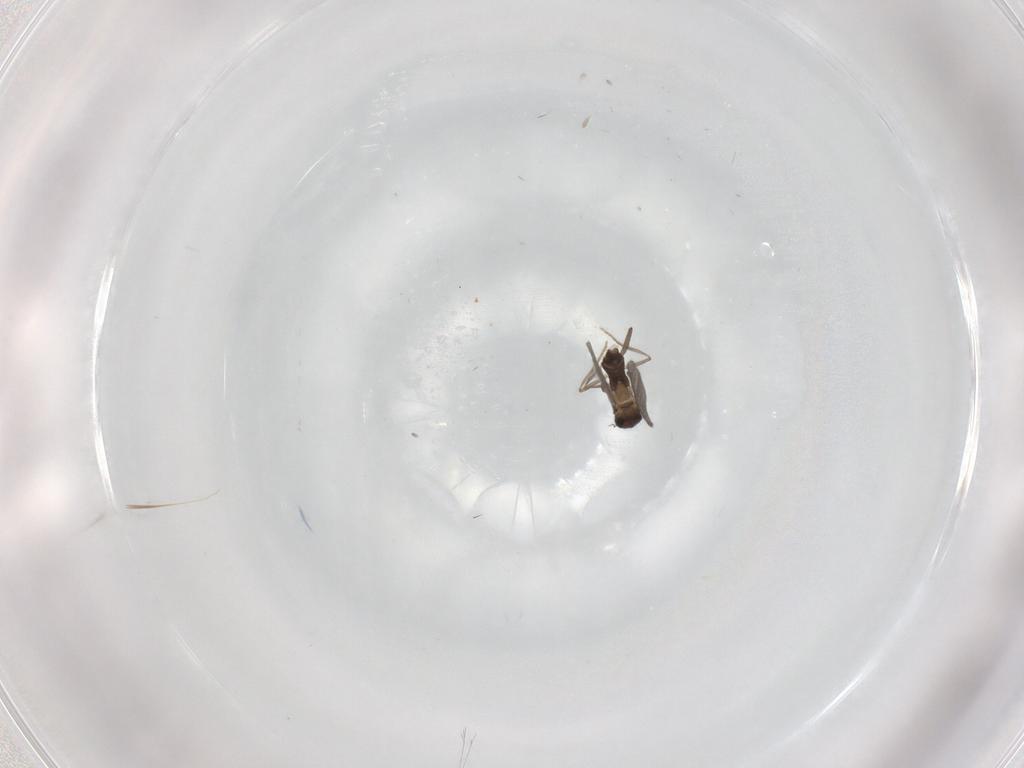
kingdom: Animalia
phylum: Arthropoda
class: Insecta
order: Diptera
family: Phoridae
